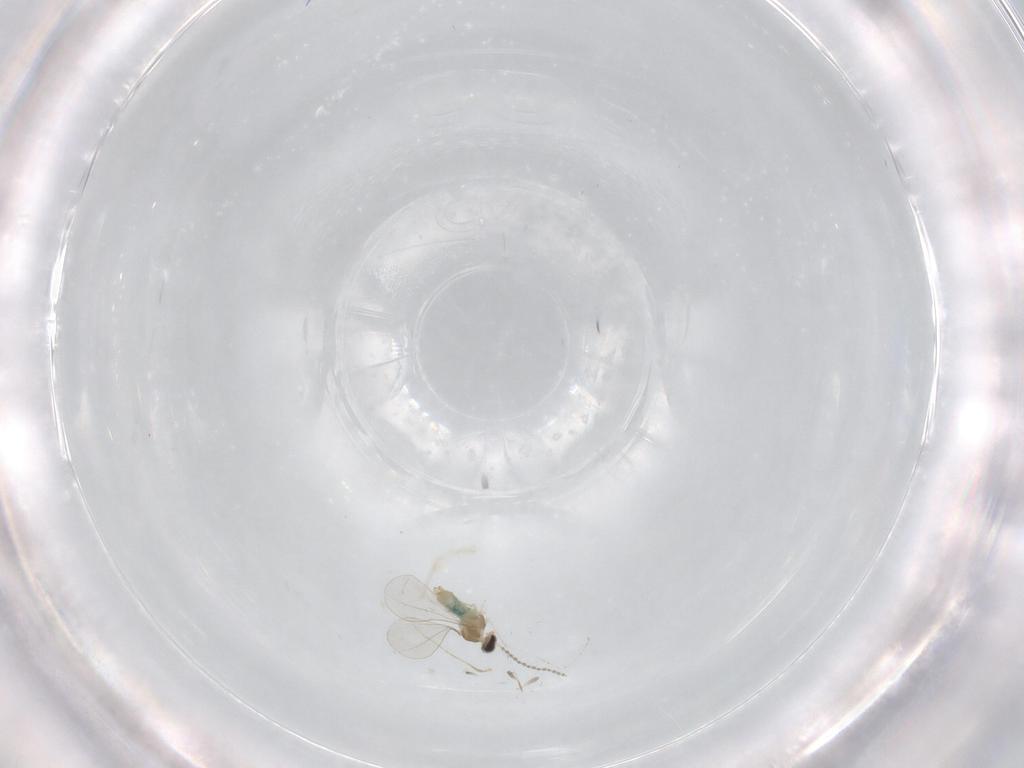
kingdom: Animalia
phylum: Arthropoda
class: Insecta
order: Diptera
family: Cecidomyiidae
